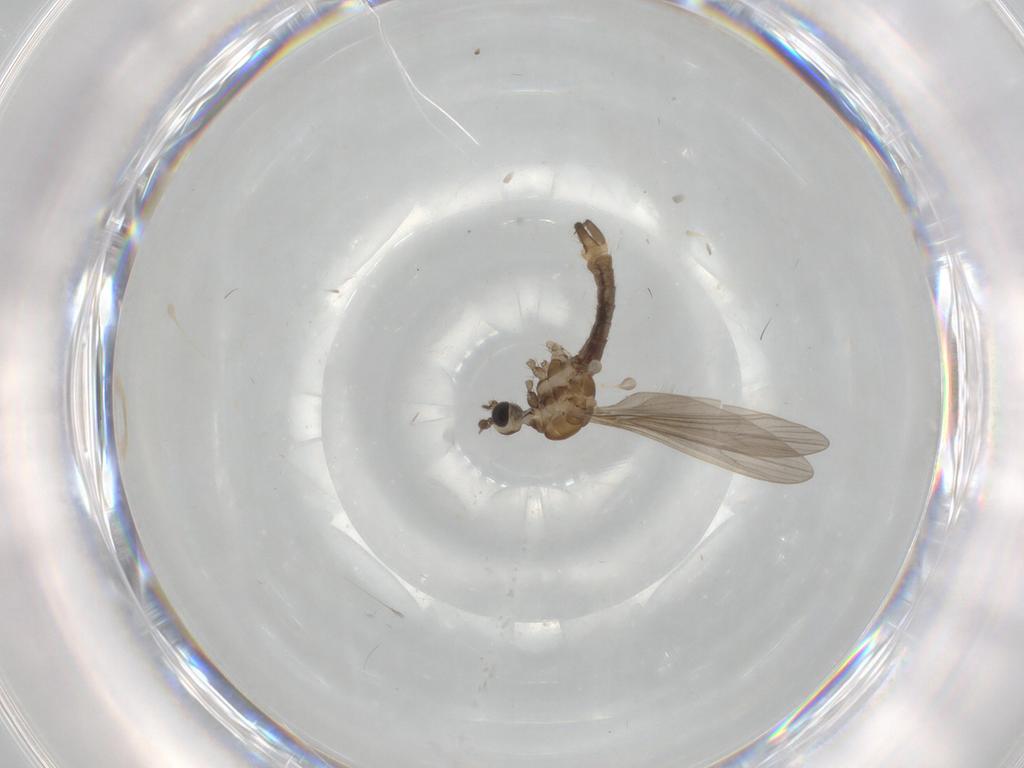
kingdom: Animalia
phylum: Arthropoda
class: Insecta
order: Diptera
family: Limoniidae
